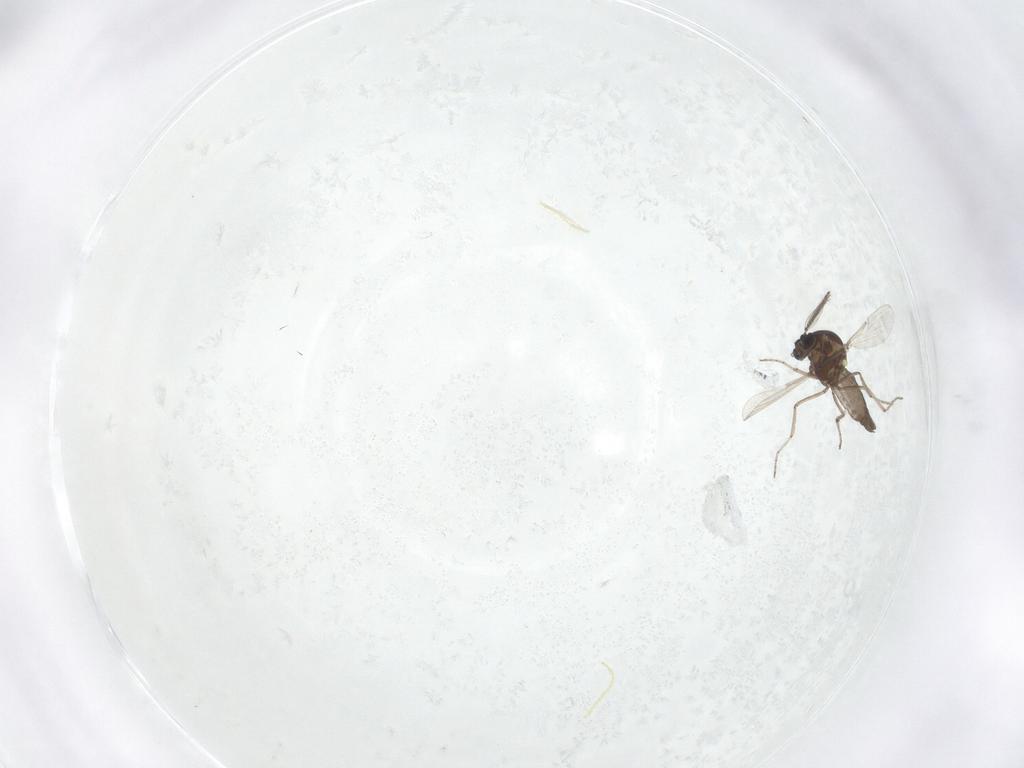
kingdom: Animalia
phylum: Arthropoda
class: Insecta
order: Diptera
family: Ceratopogonidae
